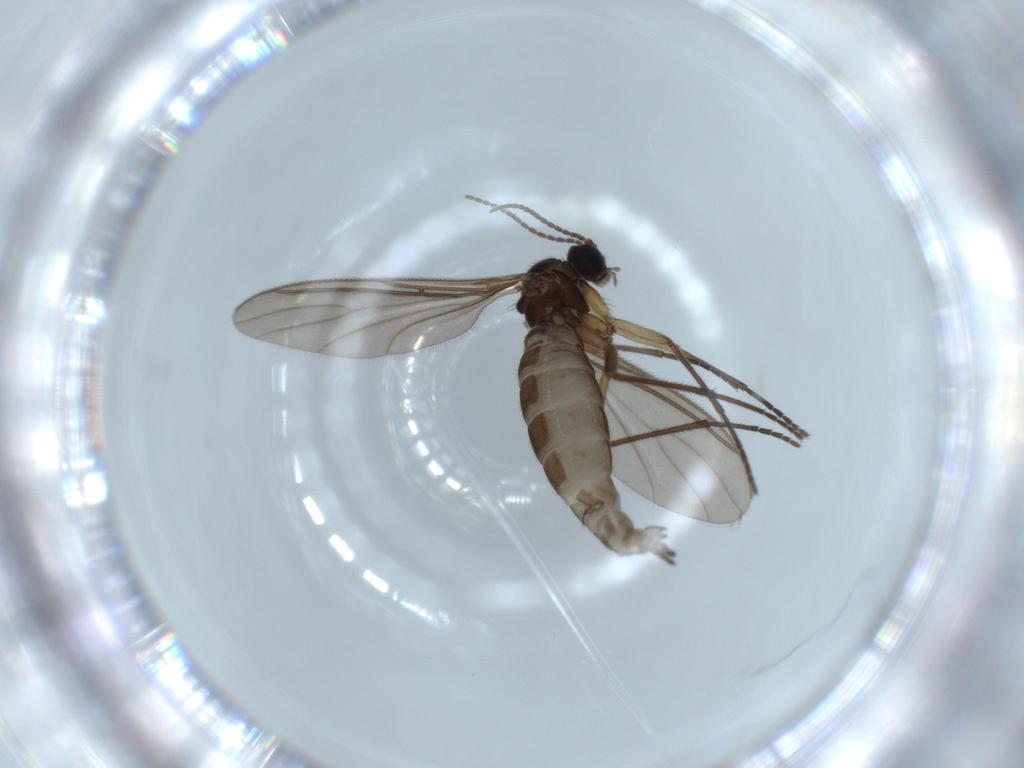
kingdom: Animalia
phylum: Arthropoda
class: Insecta
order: Diptera
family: Sciaridae
